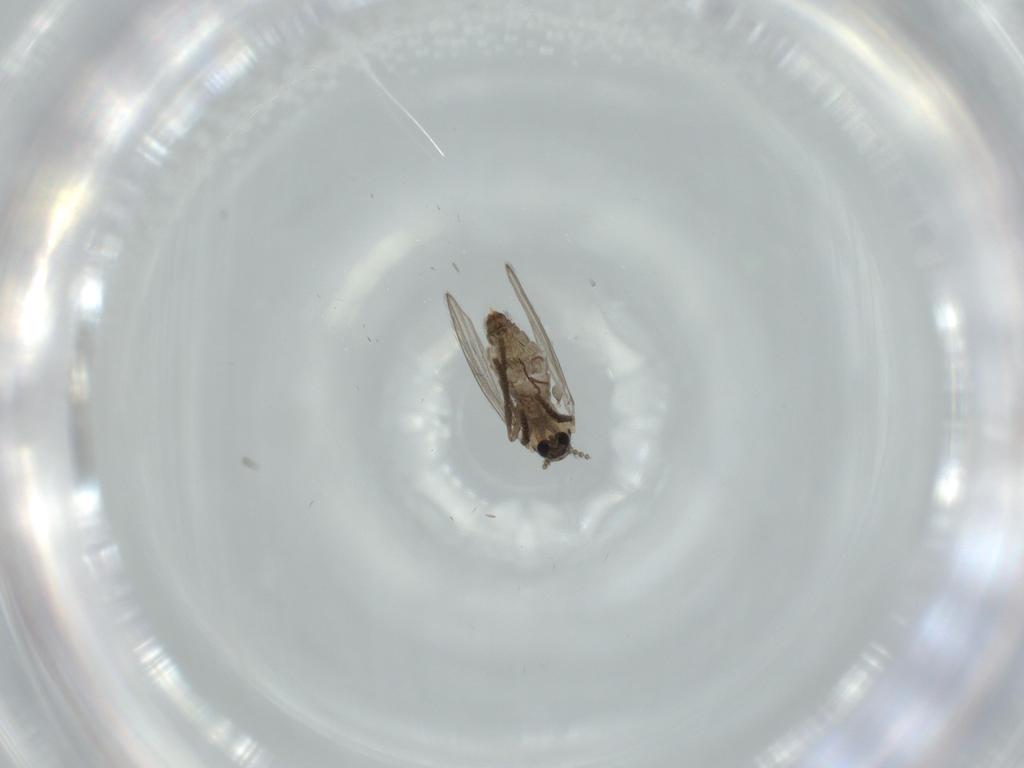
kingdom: Animalia
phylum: Arthropoda
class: Insecta
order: Diptera
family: Psychodidae
